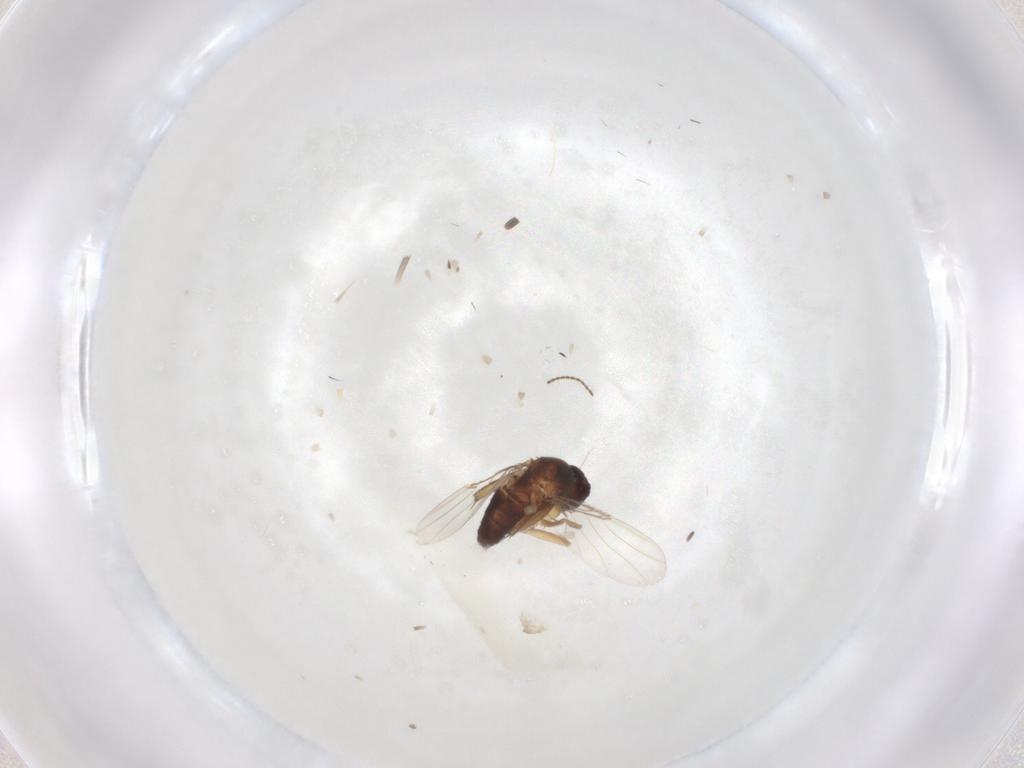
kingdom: Animalia
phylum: Arthropoda
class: Insecta
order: Diptera
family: Phoridae
